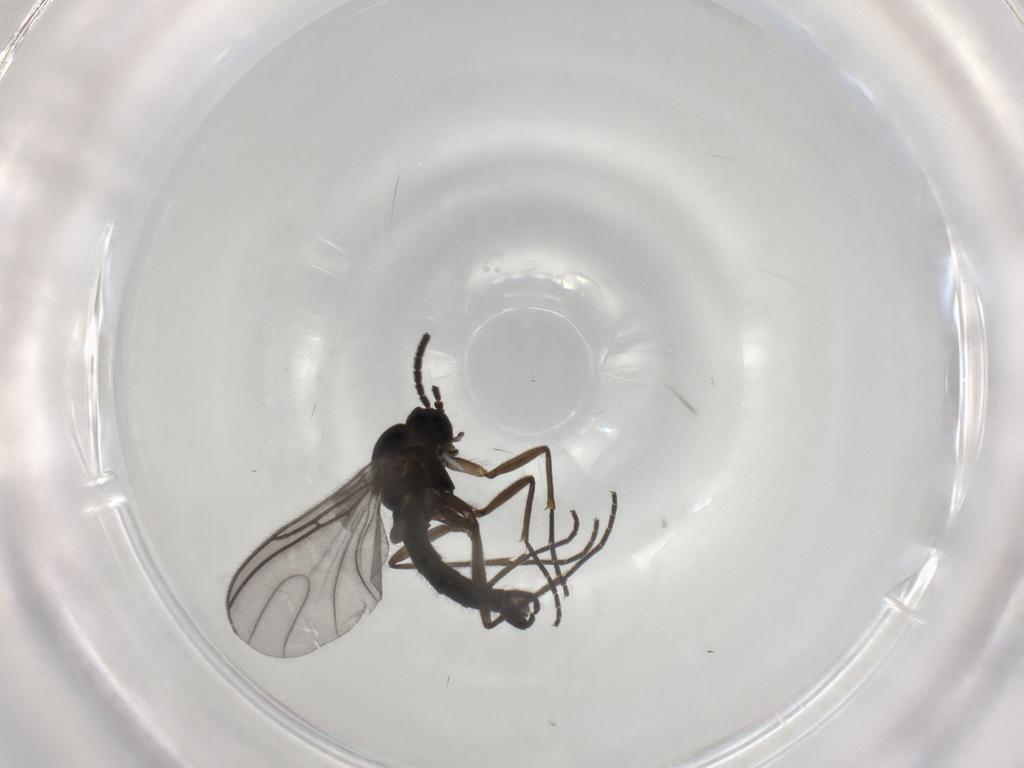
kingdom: Animalia
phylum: Arthropoda
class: Insecta
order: Diptera
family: Sciaridae
